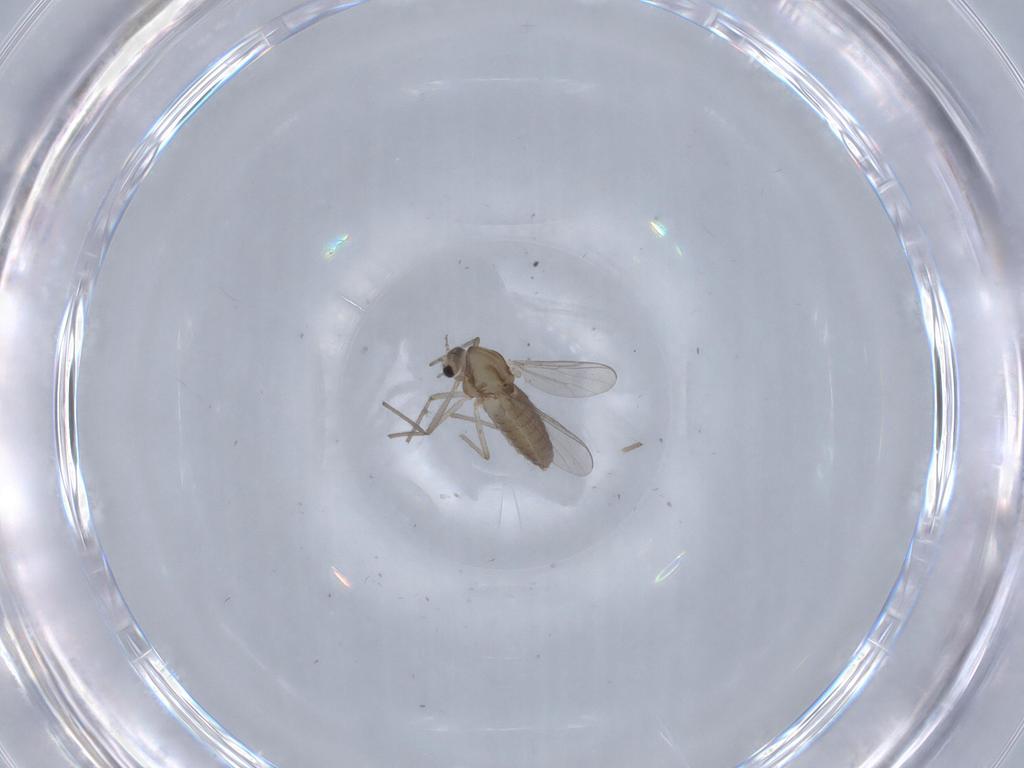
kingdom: Animalia
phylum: Arthropoda
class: Insecta
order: Diptera
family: Chironomidae
